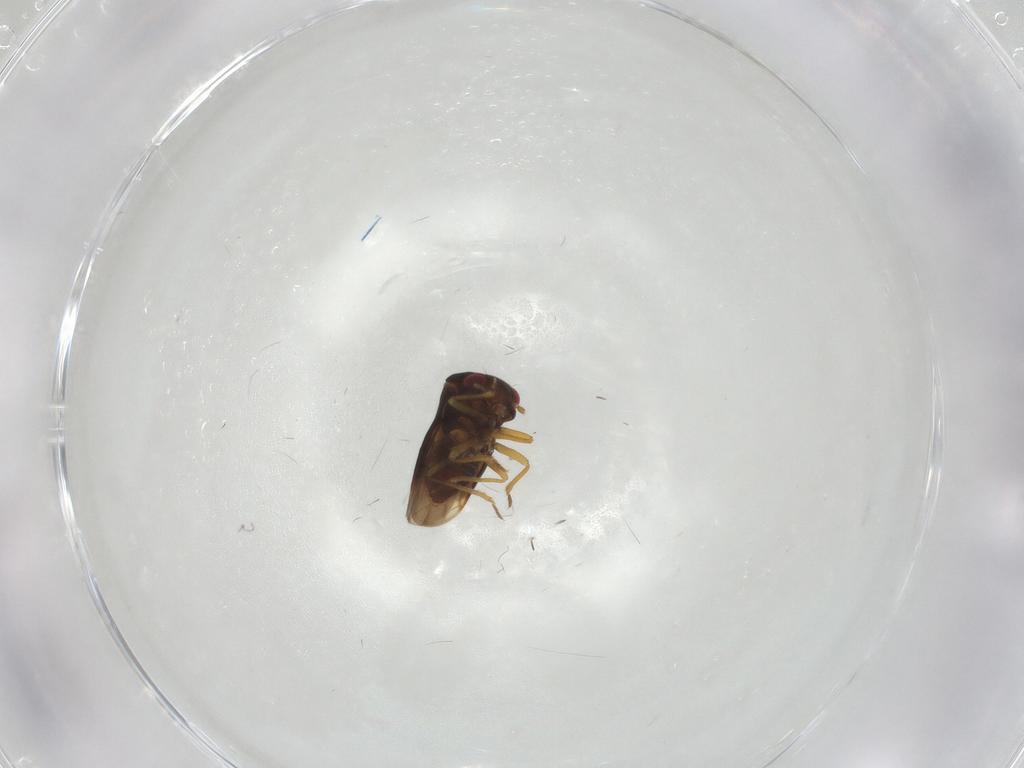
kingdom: Animalia
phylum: Arthropoda
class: Insecta
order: Hemiptera
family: Schizopteridae
